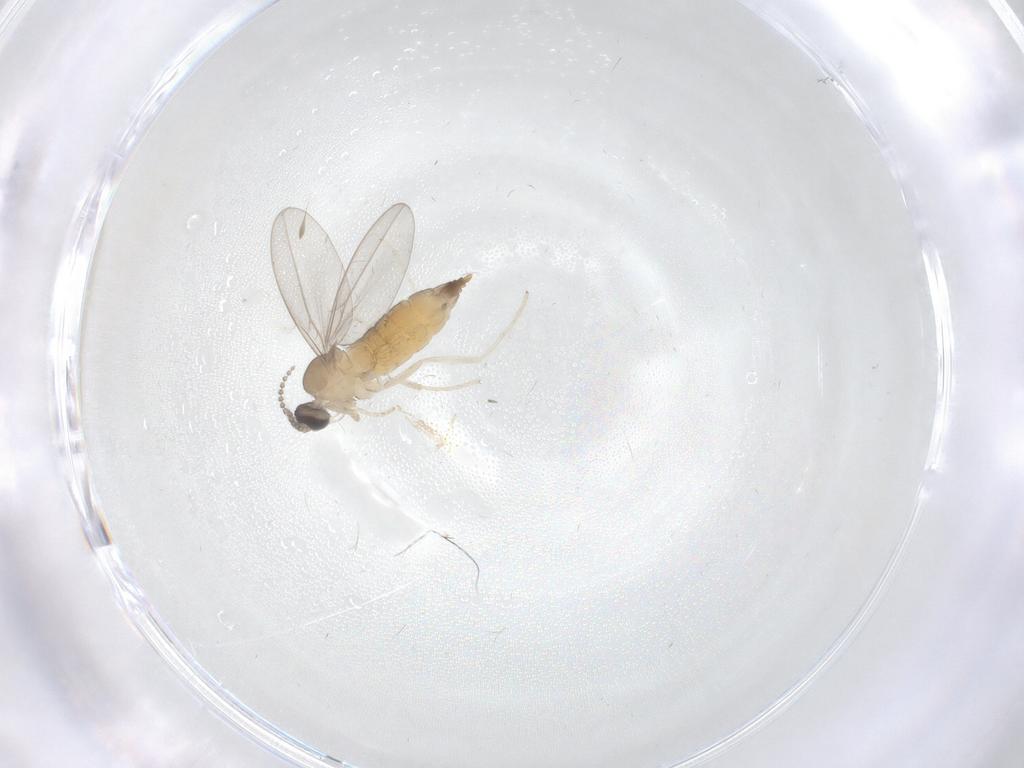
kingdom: Animalia
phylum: Arthropoda
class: Insecta
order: Diptera
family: Cecidomyiidae
